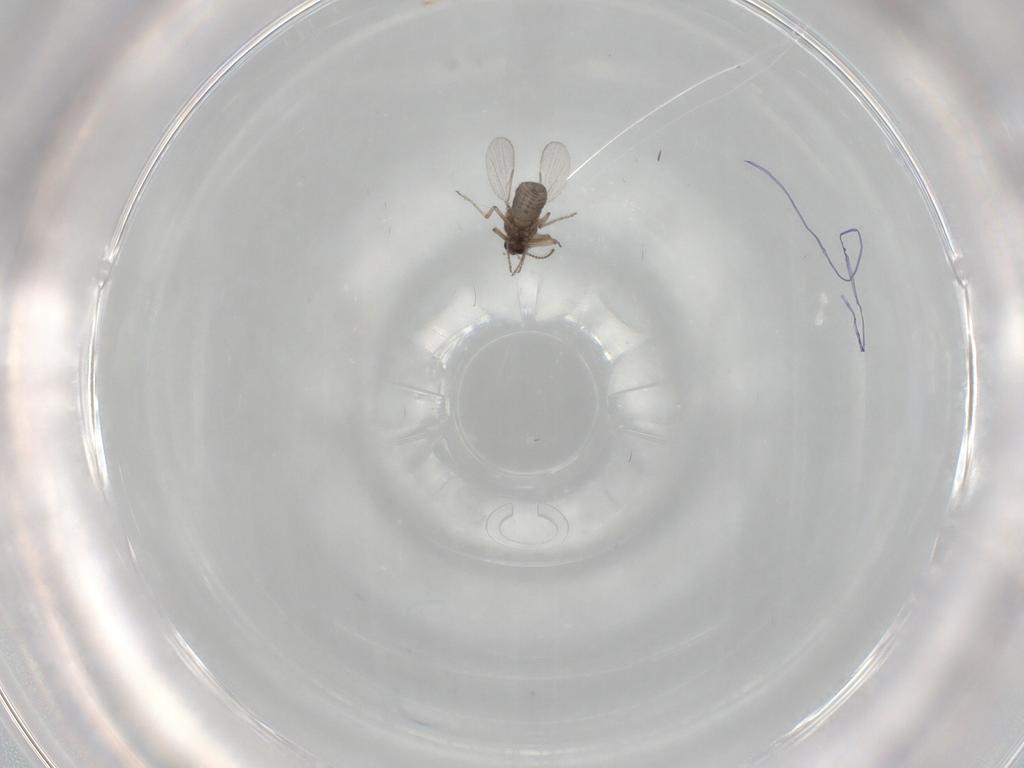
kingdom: Animalia
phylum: Arthropoda
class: Insecta
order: Diptera
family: Ceratopogonidae
